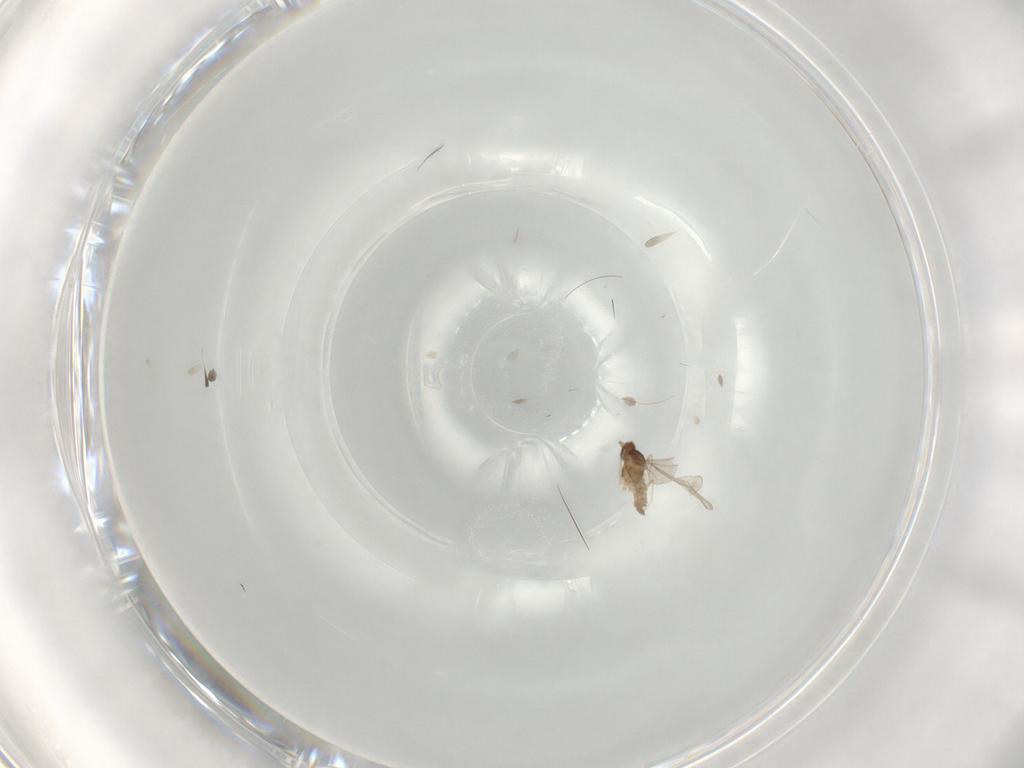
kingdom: Animalia
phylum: Arthropoda
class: Insecta
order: Diptera
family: Cecidomyiidae
